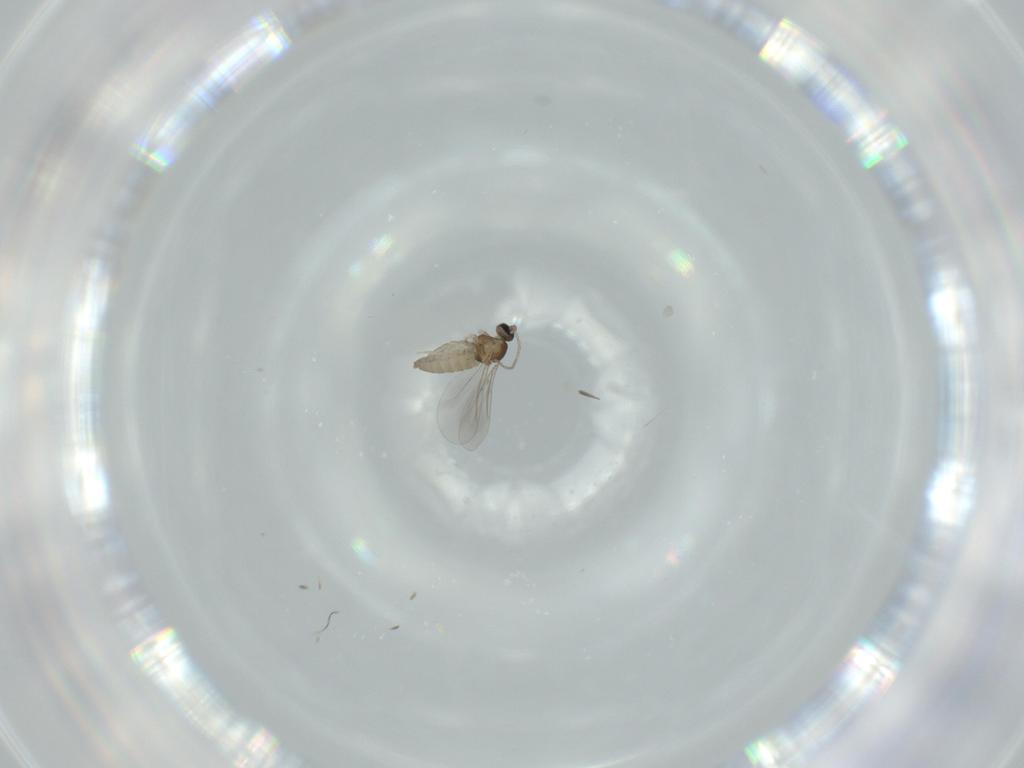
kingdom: Animalia
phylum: Arthropoda
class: Insecta
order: Diptera
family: Cecidomyiidae
